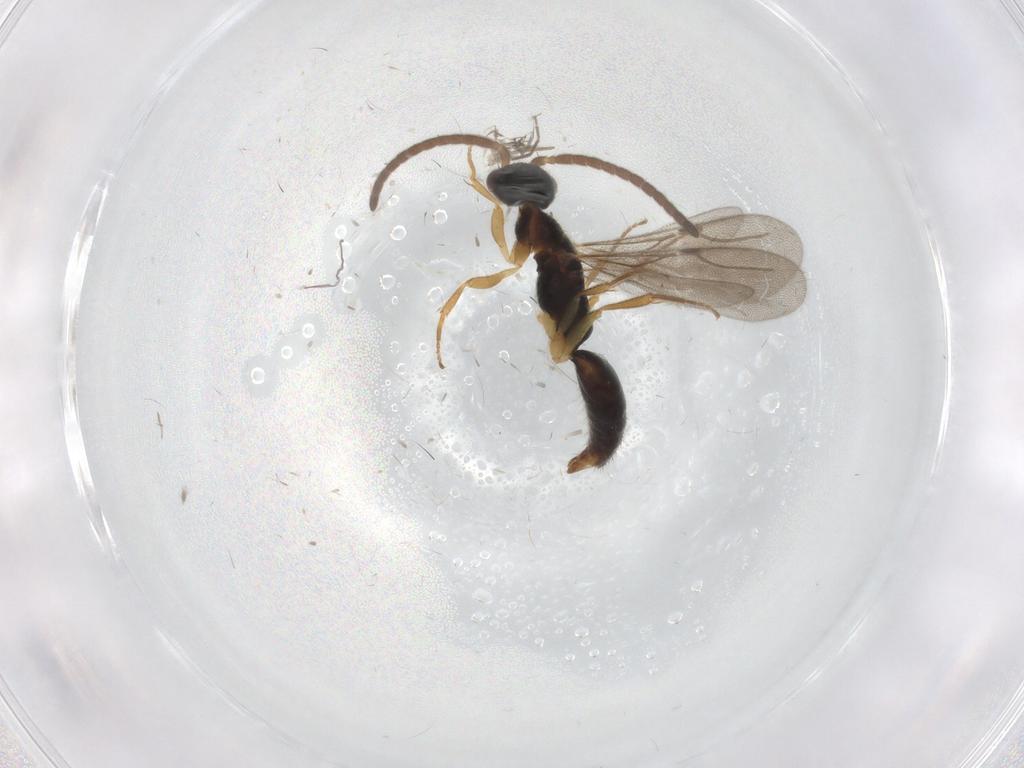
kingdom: Animalia
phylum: Arthropoda
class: Insecta
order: Hymenoptera
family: Bethylidae
